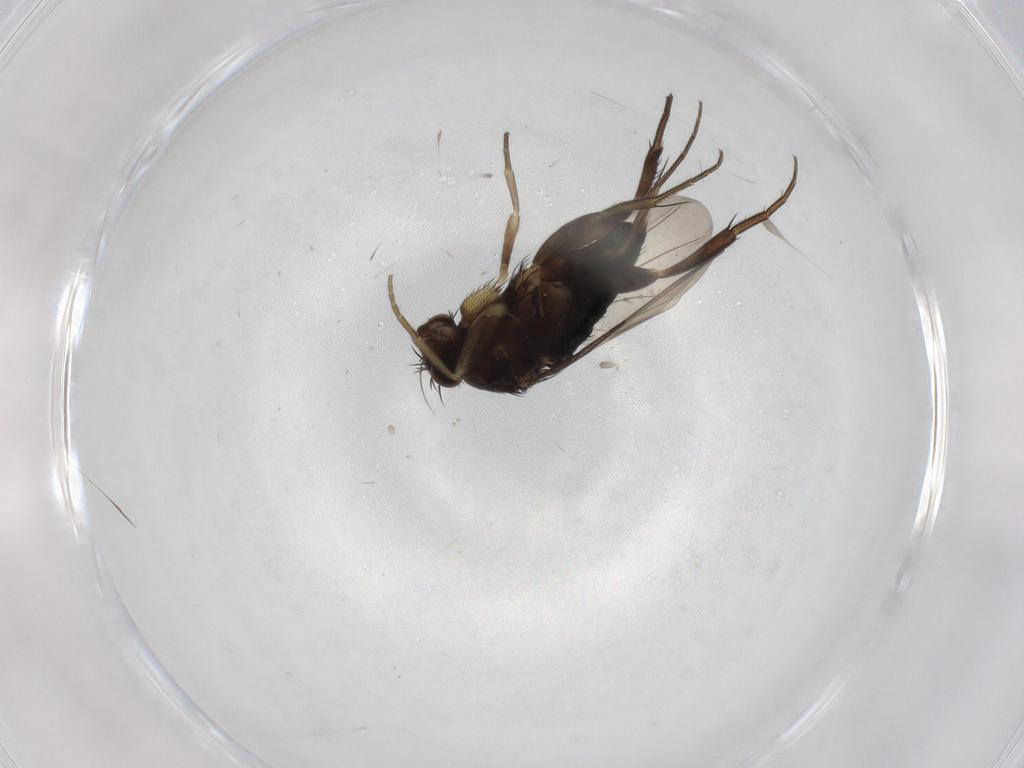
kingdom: Animalia
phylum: Arthropoda
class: Insecta
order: Diptera
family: Phoridae
